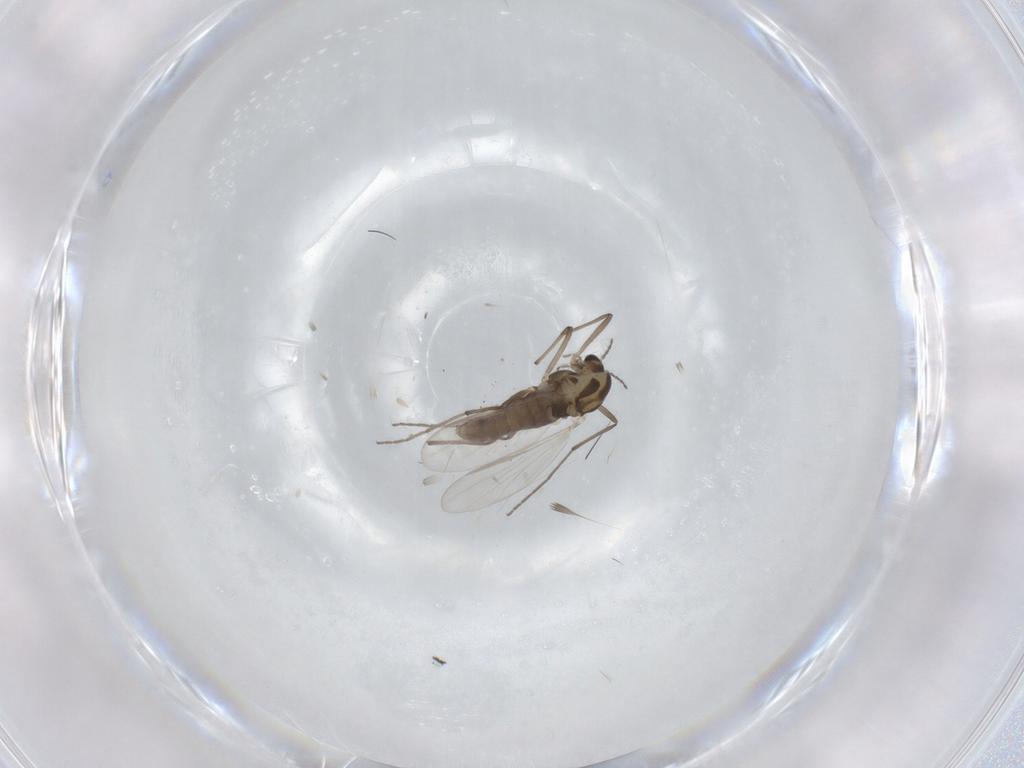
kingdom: Animalia
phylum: Arthropoda
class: Insecta
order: Diptera
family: Chironomidae
